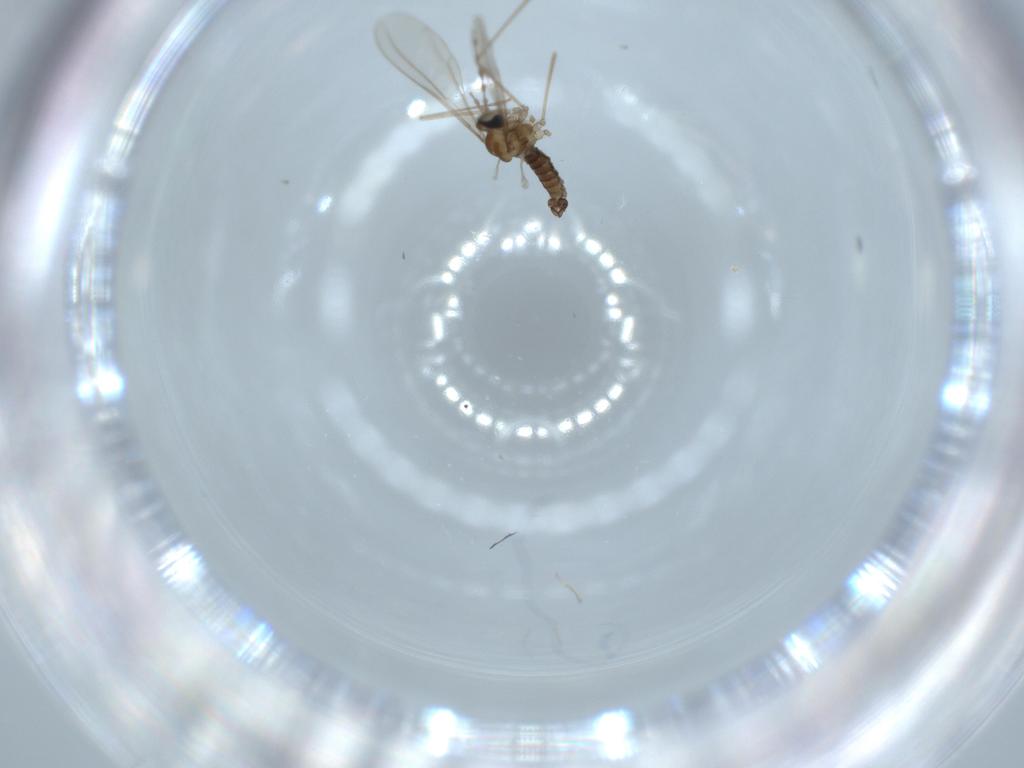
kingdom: Animalia
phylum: Arthropoda
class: Insecta
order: Diptera
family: Cecidomyiidae
